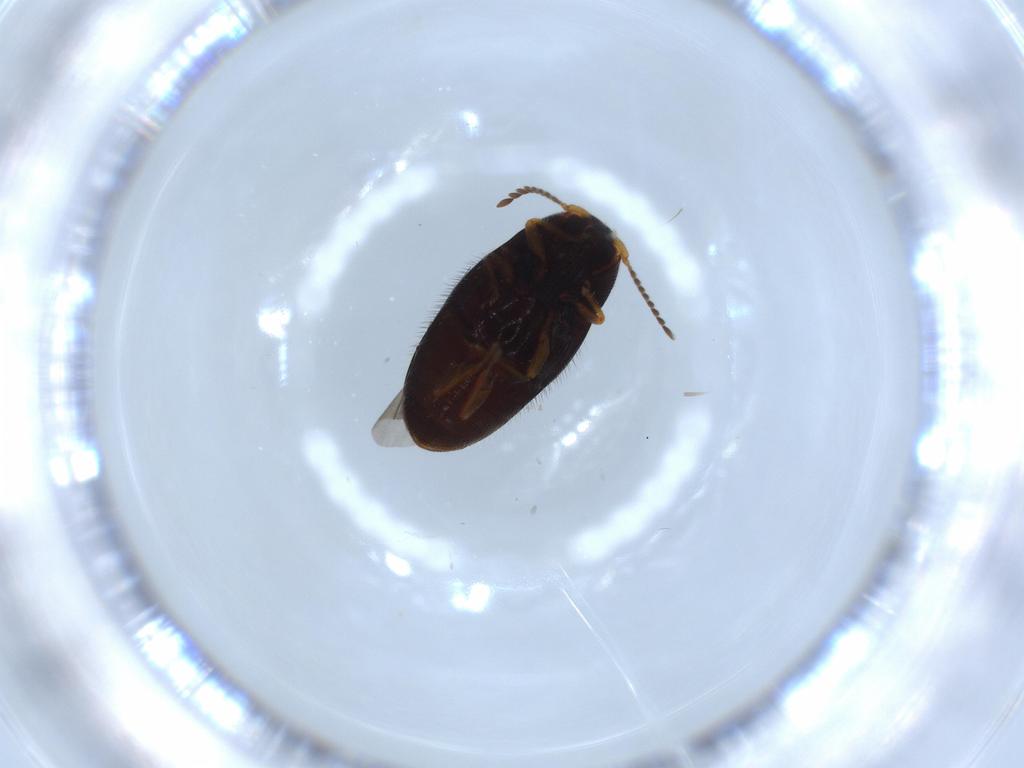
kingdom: Animalia
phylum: Arthropoda
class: Insecta
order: Coleoptera
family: Elateridae
